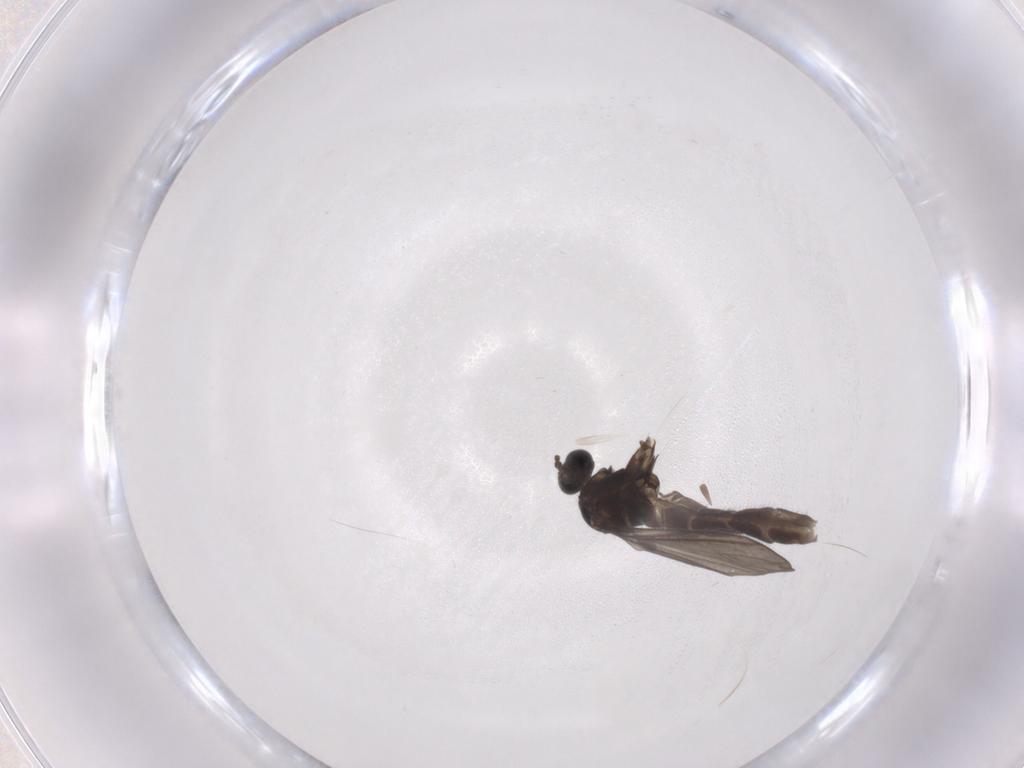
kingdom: Animalia
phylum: Arthropoda
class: Insecta
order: Diptera
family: Sphaeroceridae
